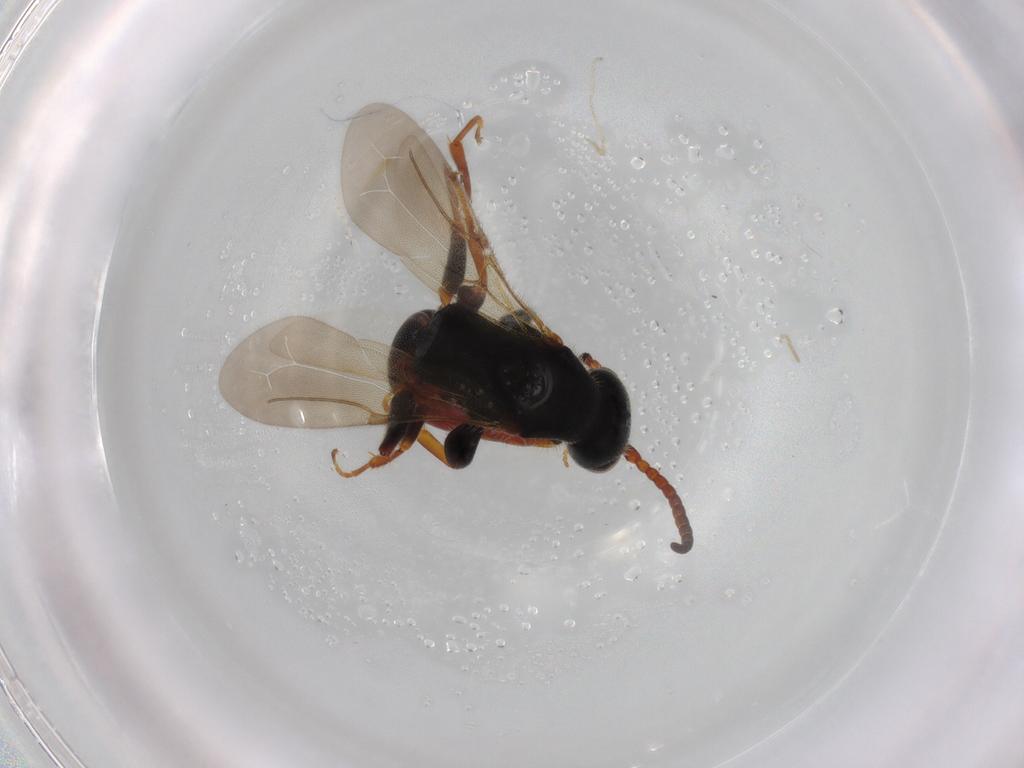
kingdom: Animalia
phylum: Arthropoda
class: Insecta
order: Hymenoptera
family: Bethylidae
